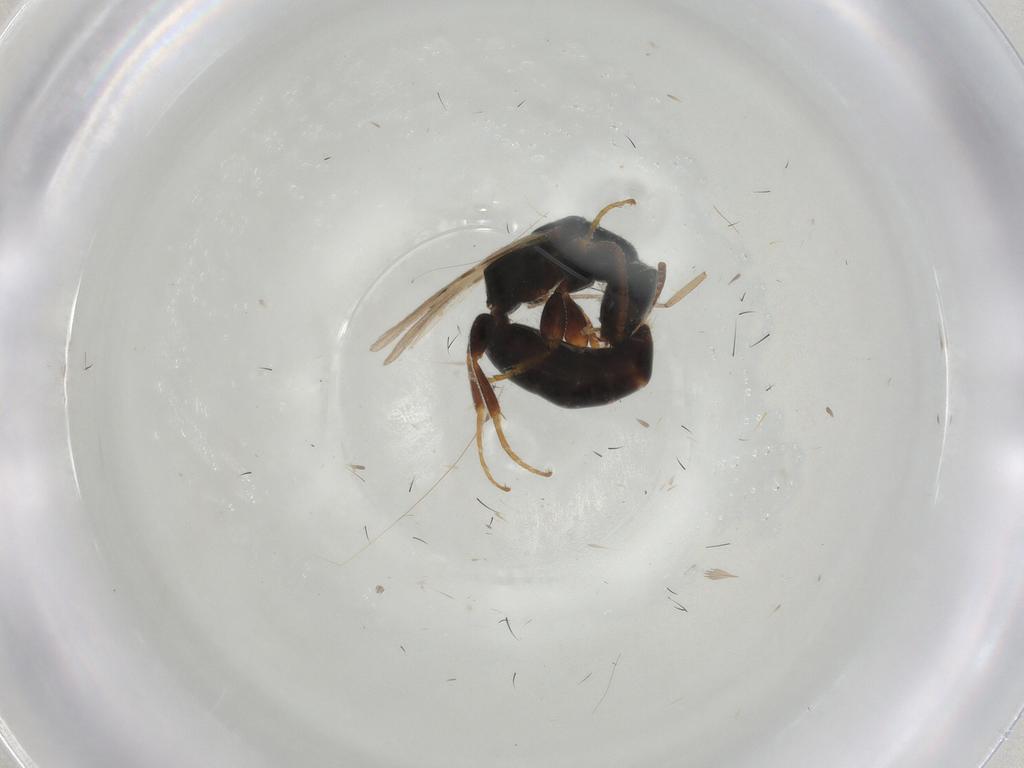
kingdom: Animalia
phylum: Arthropoda
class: Insecta
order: Hymenoptera
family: Bethylidae
